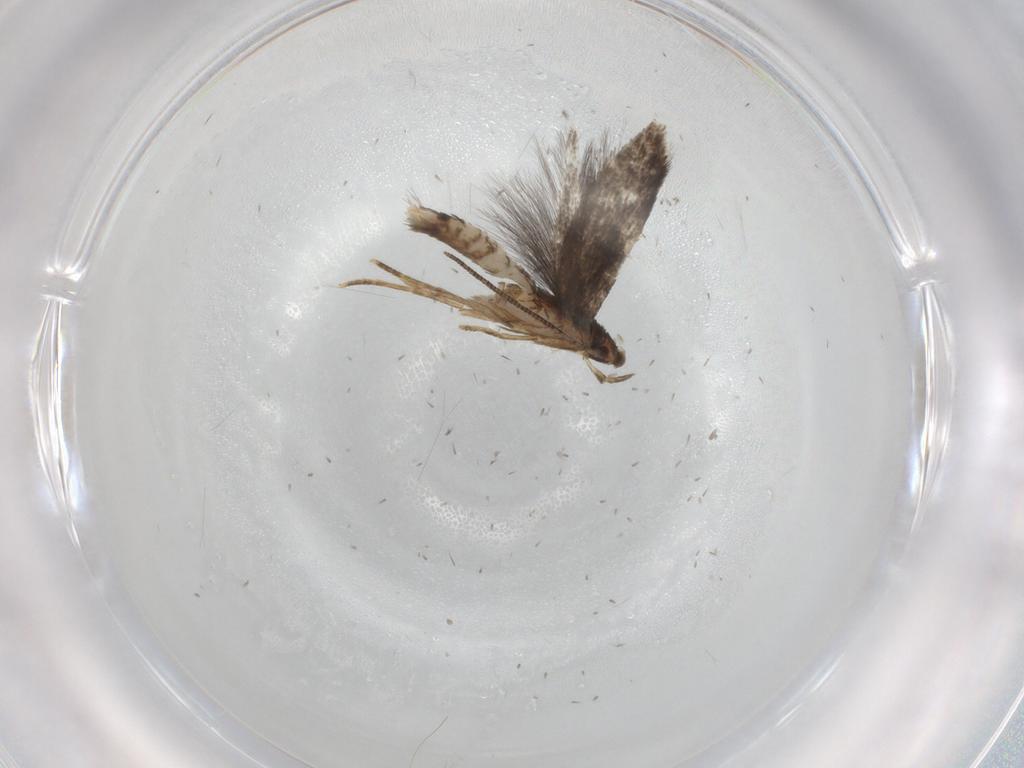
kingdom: Animalia
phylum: Arthropoda
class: Insecta
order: Lepidoptera
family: Gelechiidae
